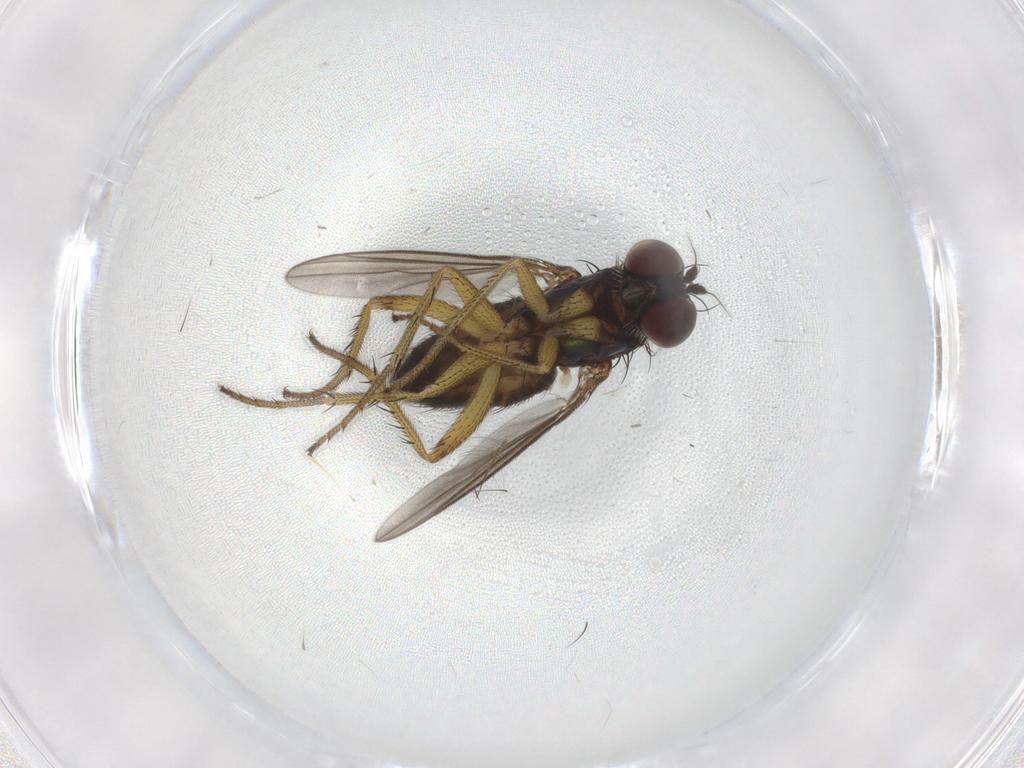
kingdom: Animalia
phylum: Arthropoda
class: Insecta
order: Diptera
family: Dolichopodidae
